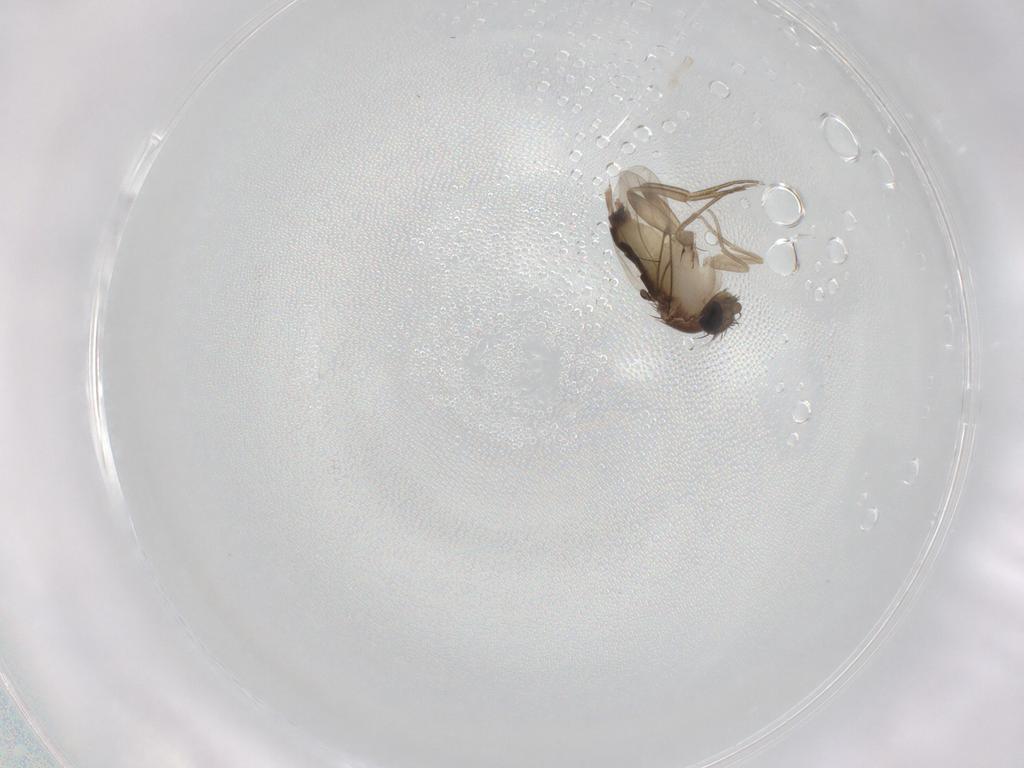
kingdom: Animalia
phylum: Arthropoda
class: Insecta
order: Diptera
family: Phoridae
